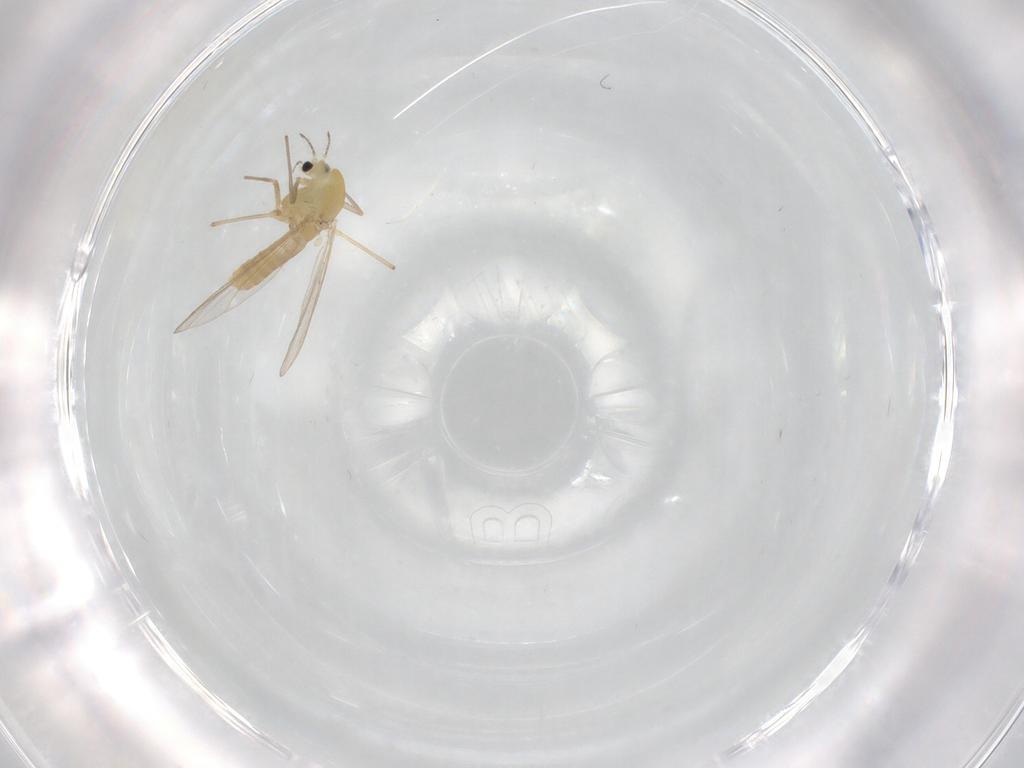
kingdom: Animalia
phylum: Arthropoda
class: Insecta
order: Diptera
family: Chironomidae
